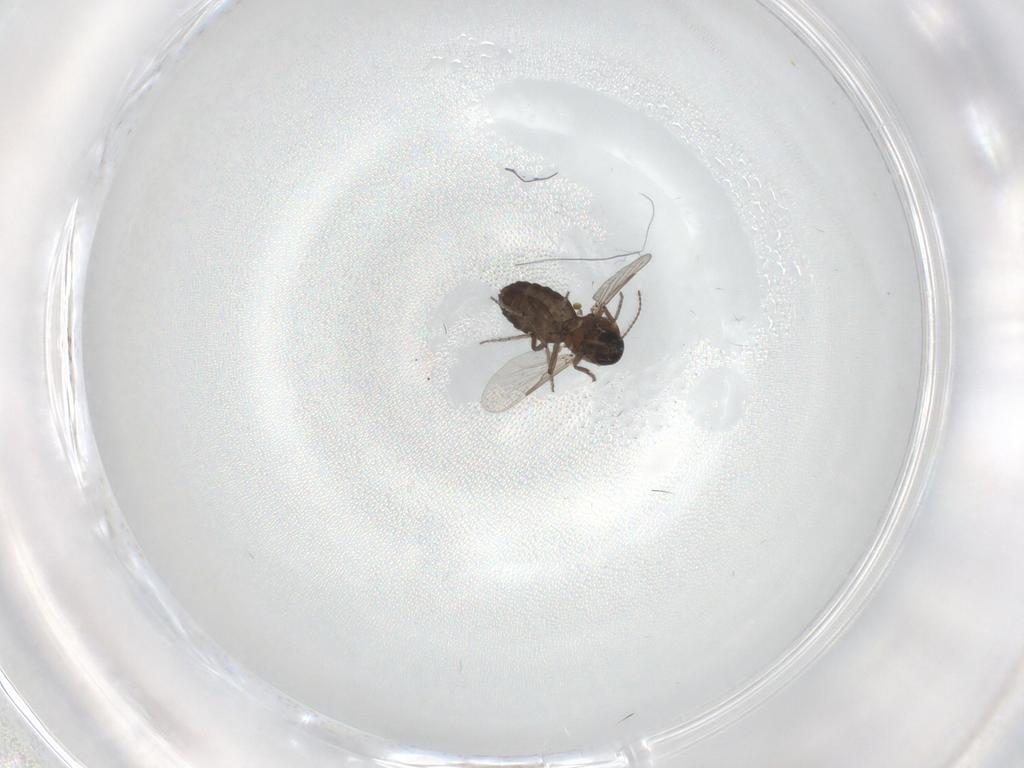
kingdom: Animalia
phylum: Arthropoda
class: Insecta
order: Diptera
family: Ceratopogonidae
